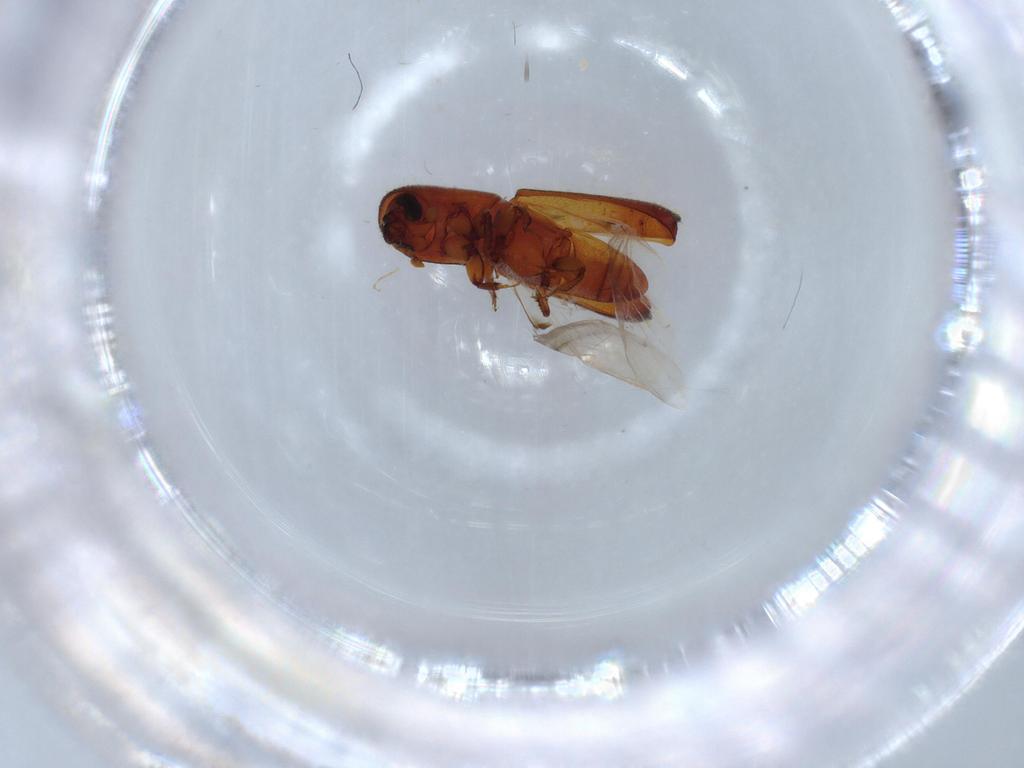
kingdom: Animalia
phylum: Arthropoda
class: Insecta
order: Coleoptera
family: Curculionidae
